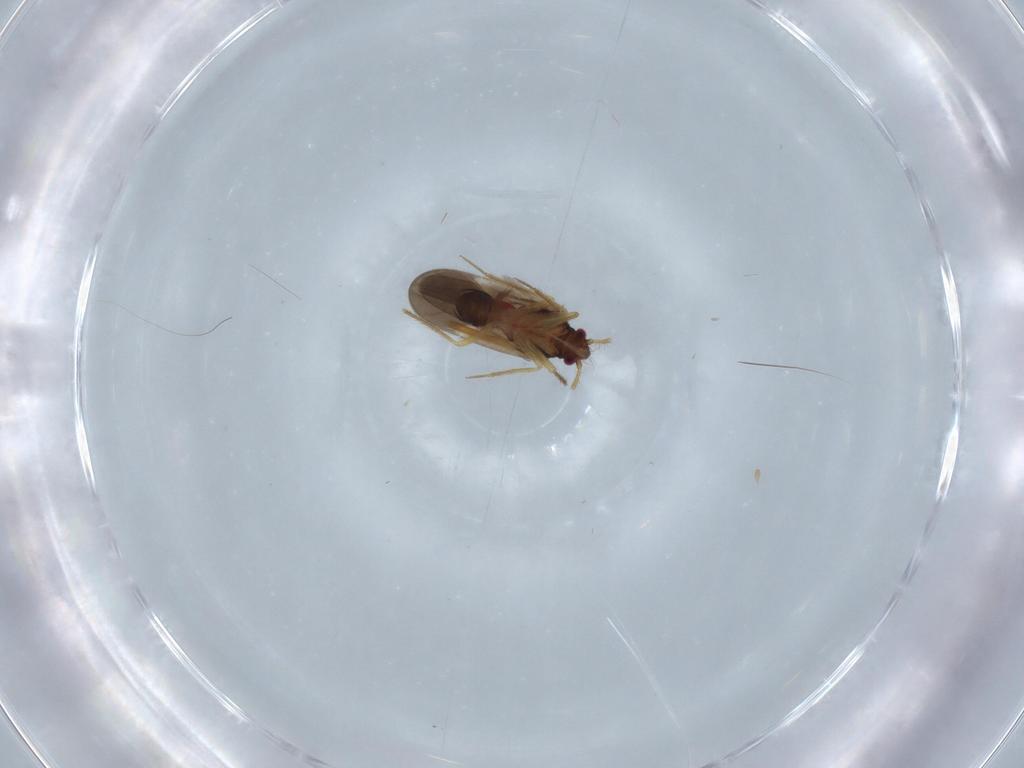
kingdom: Animalia
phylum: Arthropoda
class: Insecta
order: Hemiptera
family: Ceratocombidae
